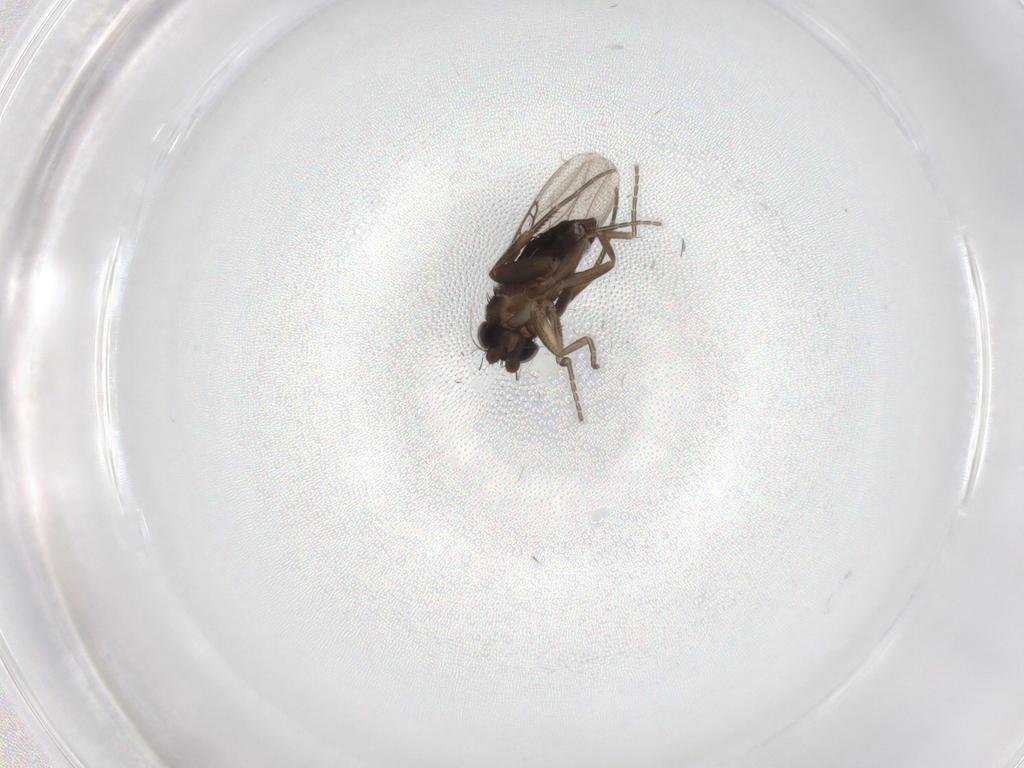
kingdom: Animalia
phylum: Arthropoda
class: Insecta
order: Diptera
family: Phoridae
